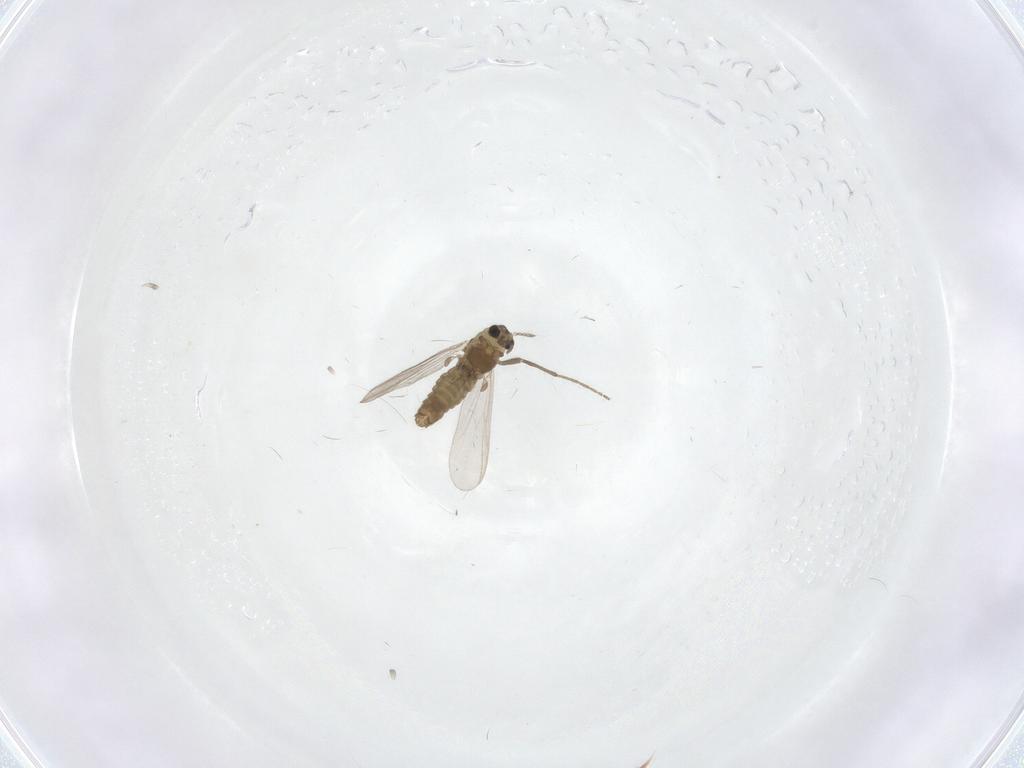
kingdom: Animalia
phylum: Arthropoda
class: Insecta
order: Diptera
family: Chironomidae
